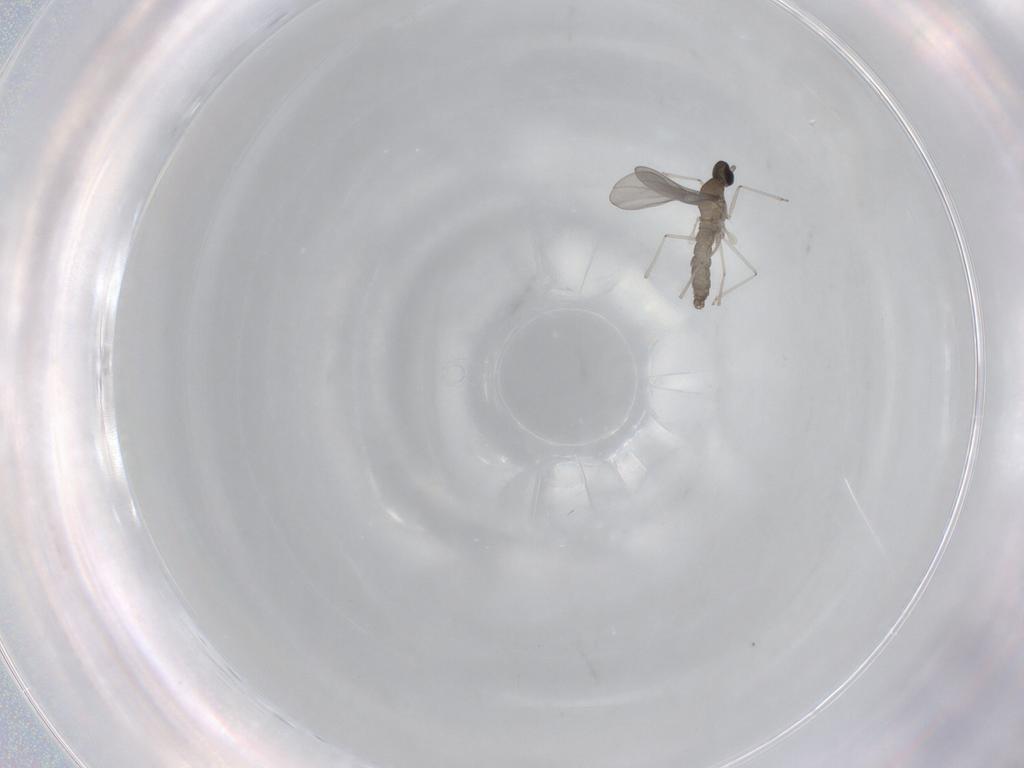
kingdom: Animalia
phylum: Arthropoda
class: Insecta
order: Diptera
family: Cecidomyiidae
